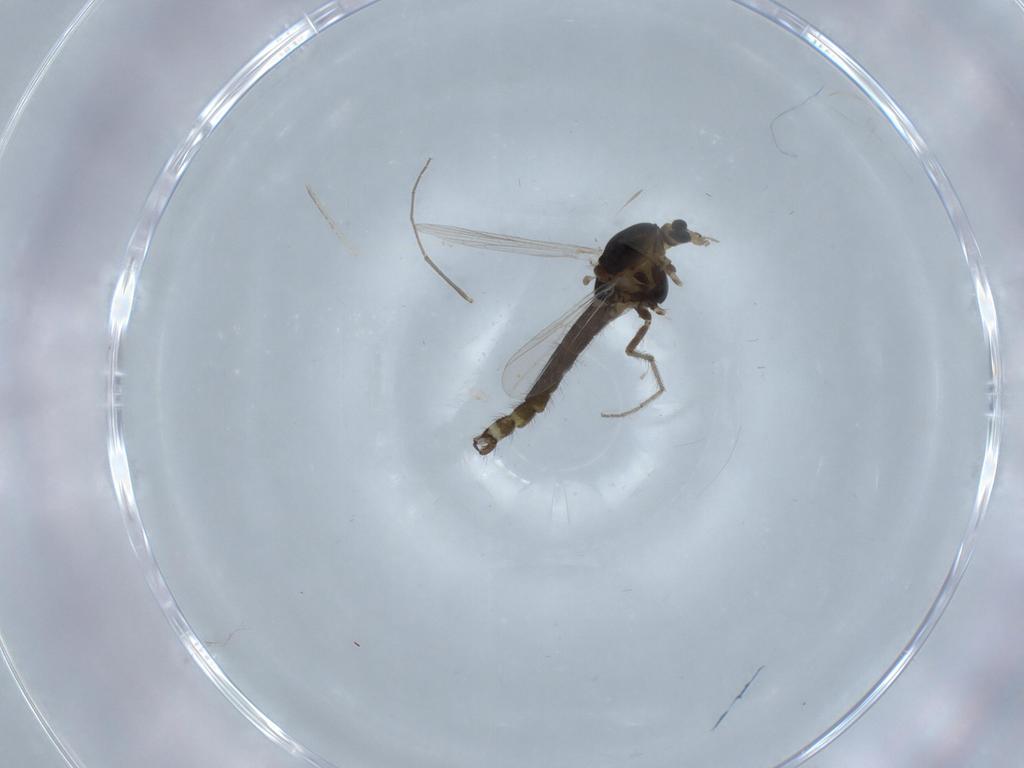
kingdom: Animalia
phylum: Arthropoda
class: Insecta
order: Diptera
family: Chironomidae
